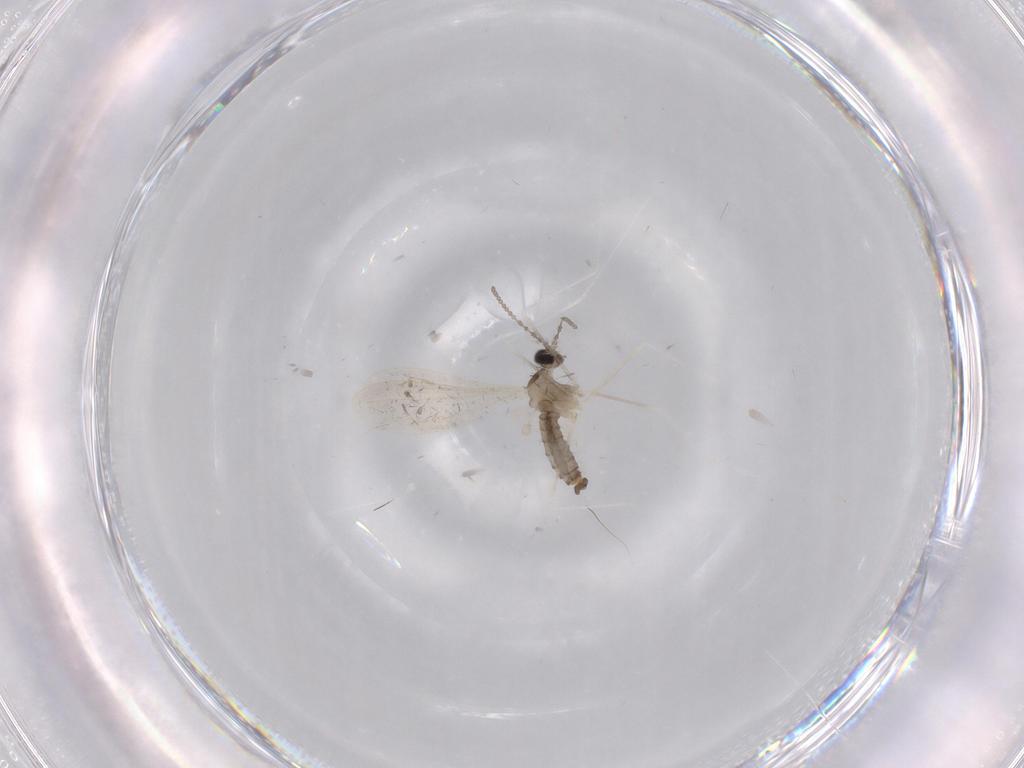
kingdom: Animalia
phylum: Arthropoda
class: Insecta
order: Diptera
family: Cecidomyiidae
